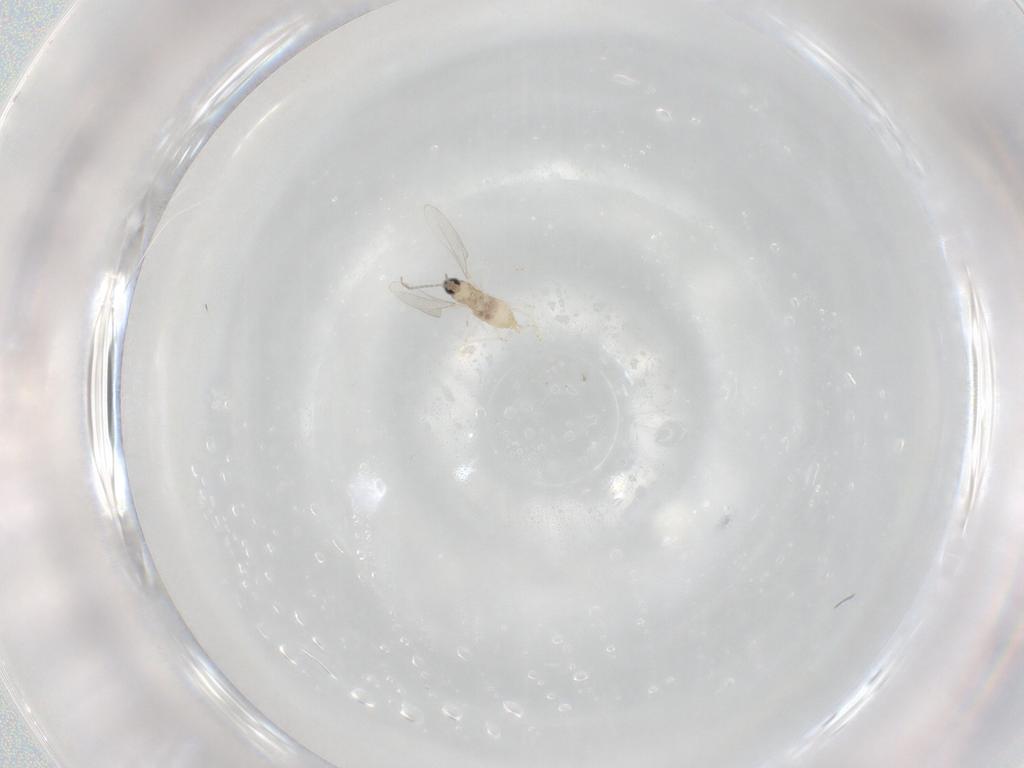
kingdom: Animalia
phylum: Arthropoda
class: Insecta
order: Diptera
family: Cecidomyiidae
